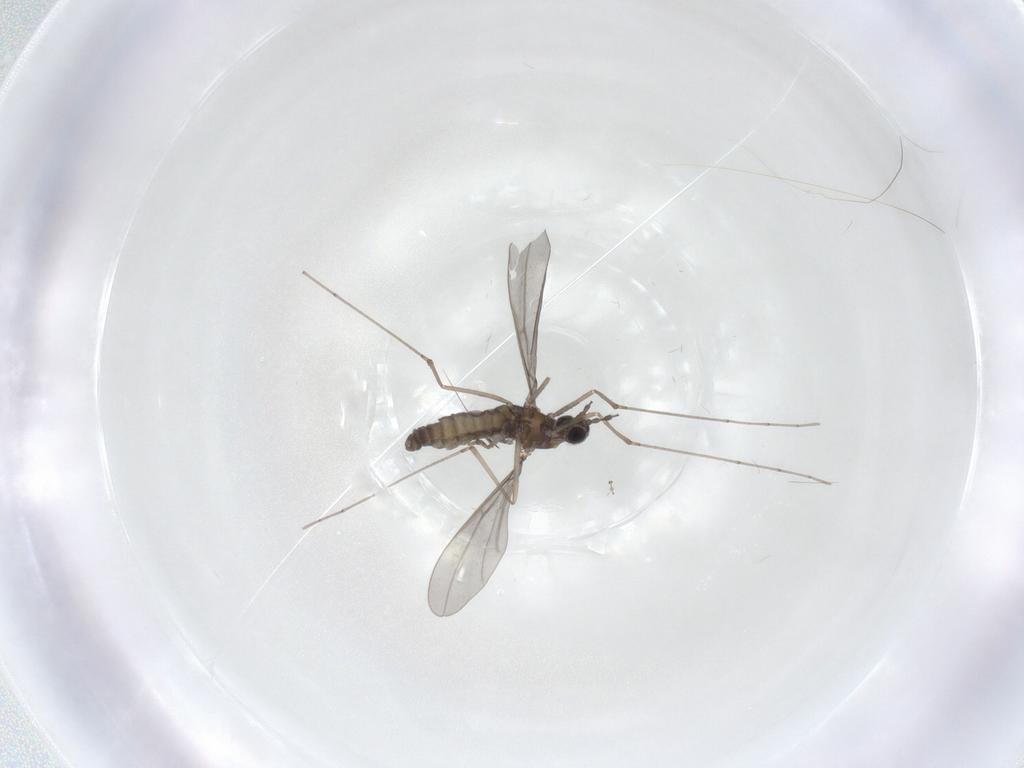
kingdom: Animalia
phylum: Arthropoda
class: Insecta
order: Diptera
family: Cecidomyiidae
